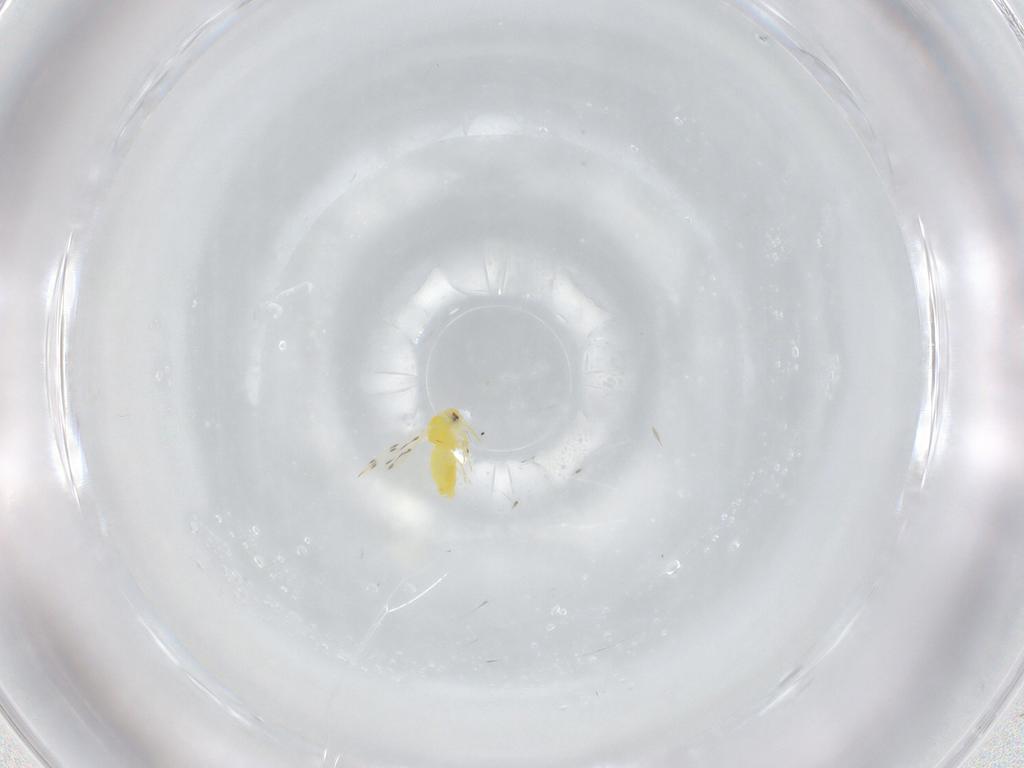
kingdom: Animalia
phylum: Arthropoda
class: Insecta
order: Hemiptera
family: Aleyrodidae
